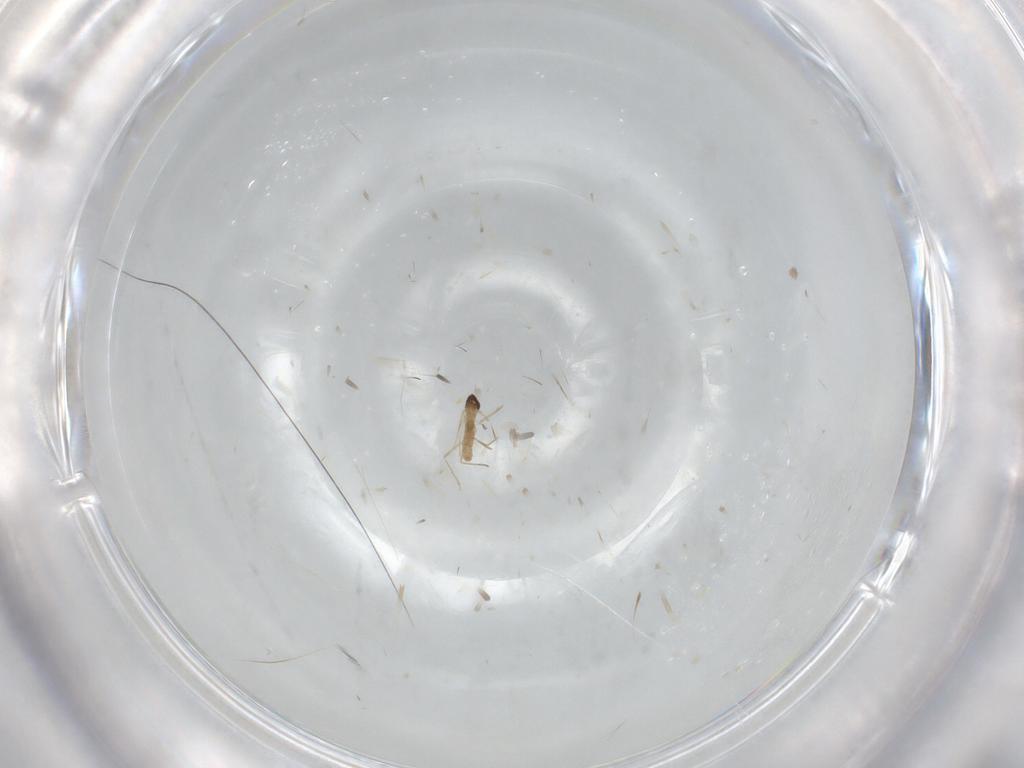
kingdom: Animalia
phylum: Arthropoda
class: Insecta
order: Diptera
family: Cecidomyiidae
